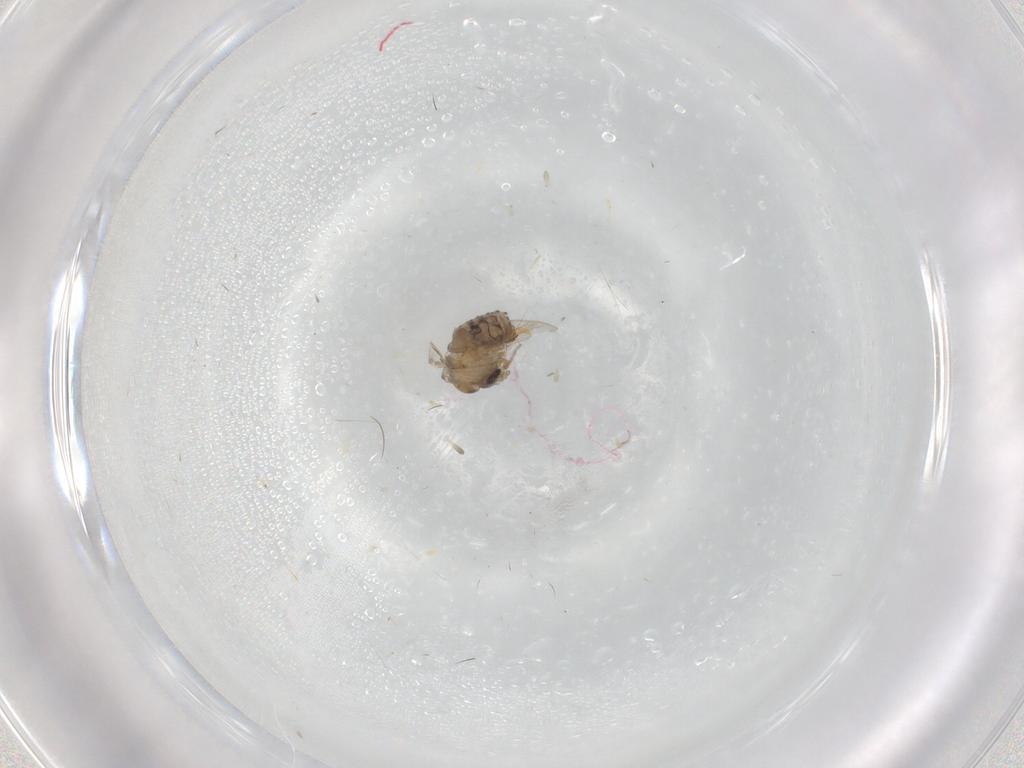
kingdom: Animalia
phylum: Arthropoda
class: Insecta
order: Diptera
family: Psychodidae
